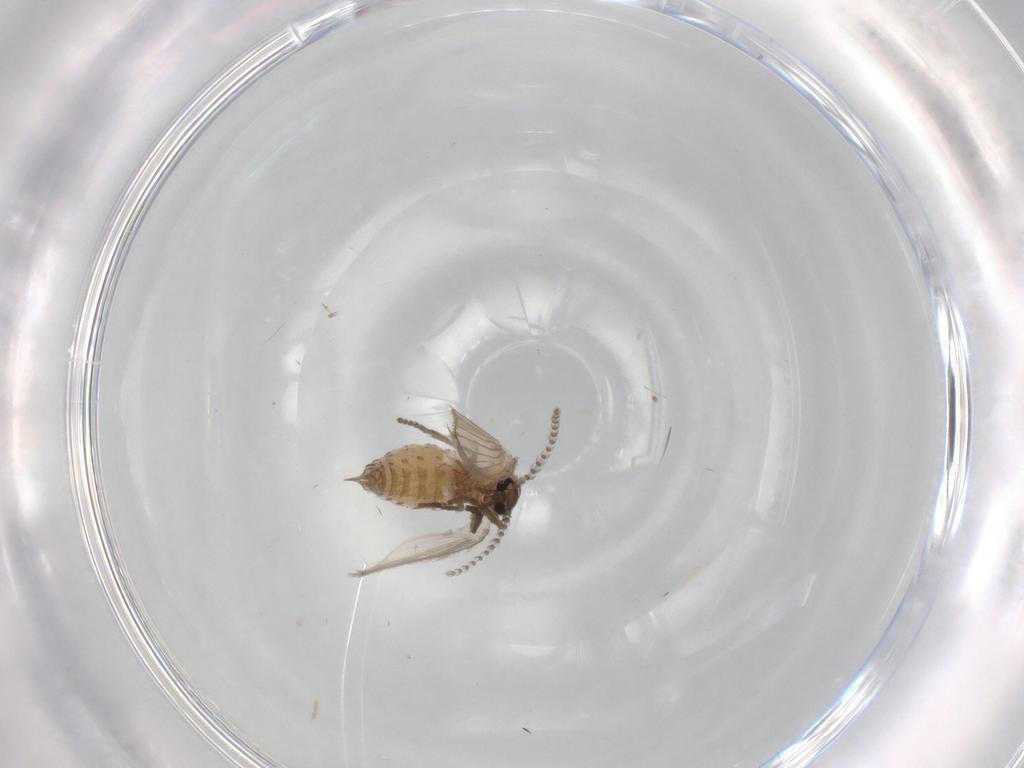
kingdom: Animalia
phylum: Arthropoda
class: Insecta
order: Diptera
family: Psychodidae
